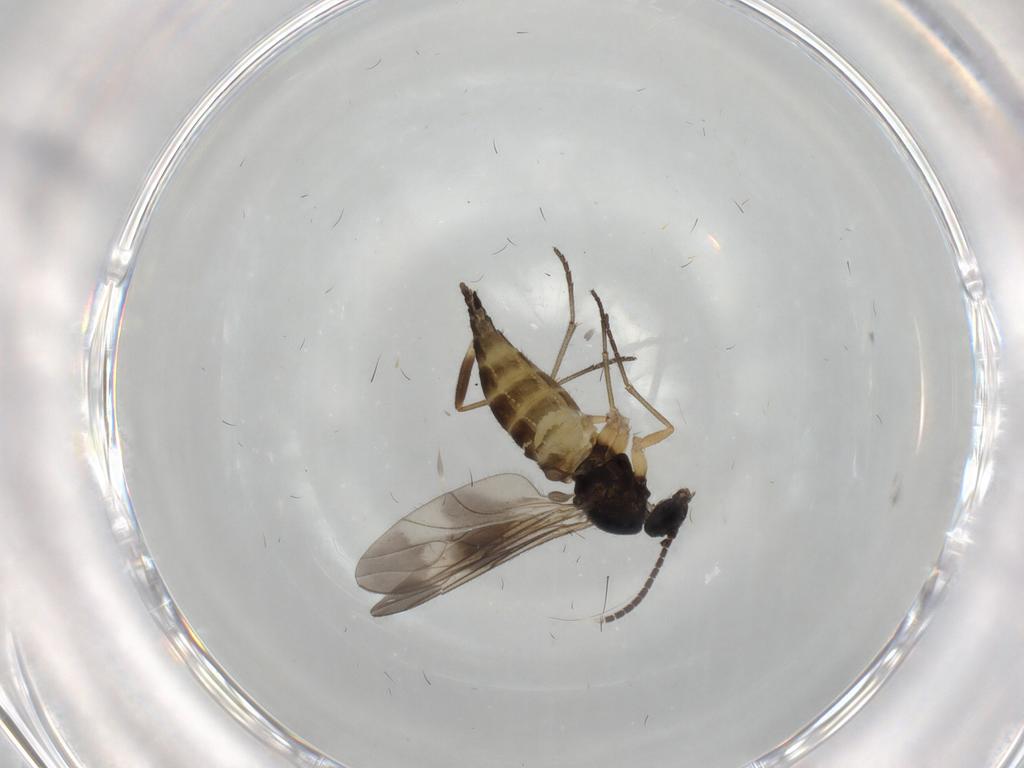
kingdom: Animalia
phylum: Arthropoda
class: Insecta
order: Diptera
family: Sciaridae
